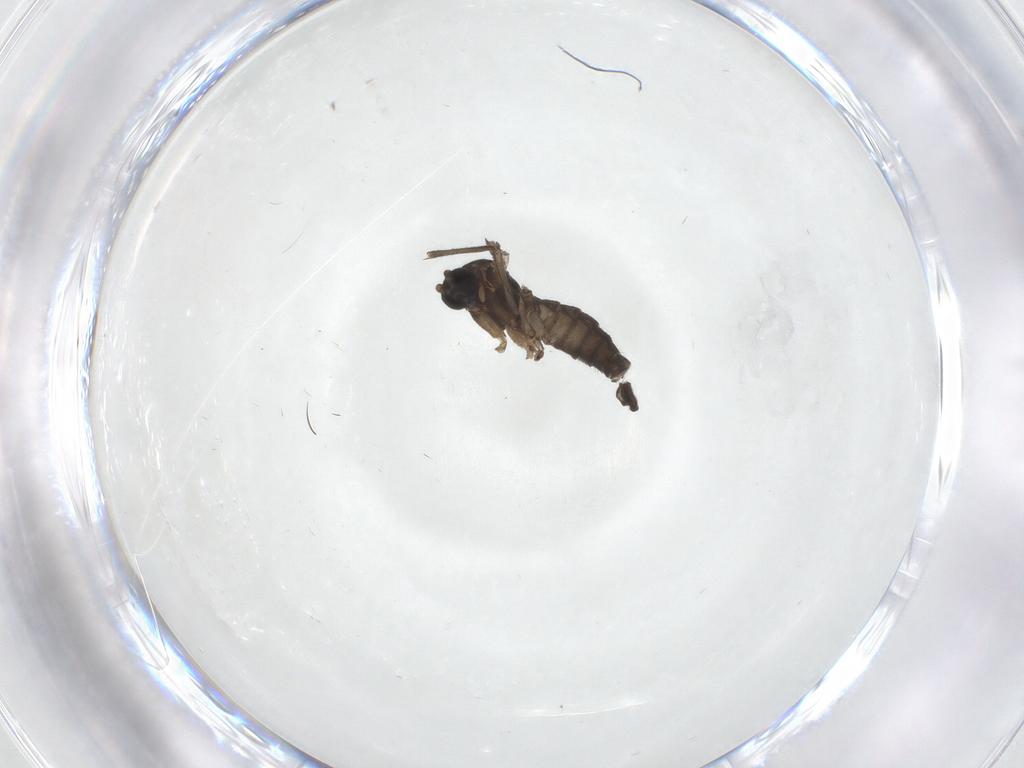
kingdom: Animalia
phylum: Arthropoda
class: Insecta
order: Diptera
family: Sciaridae
